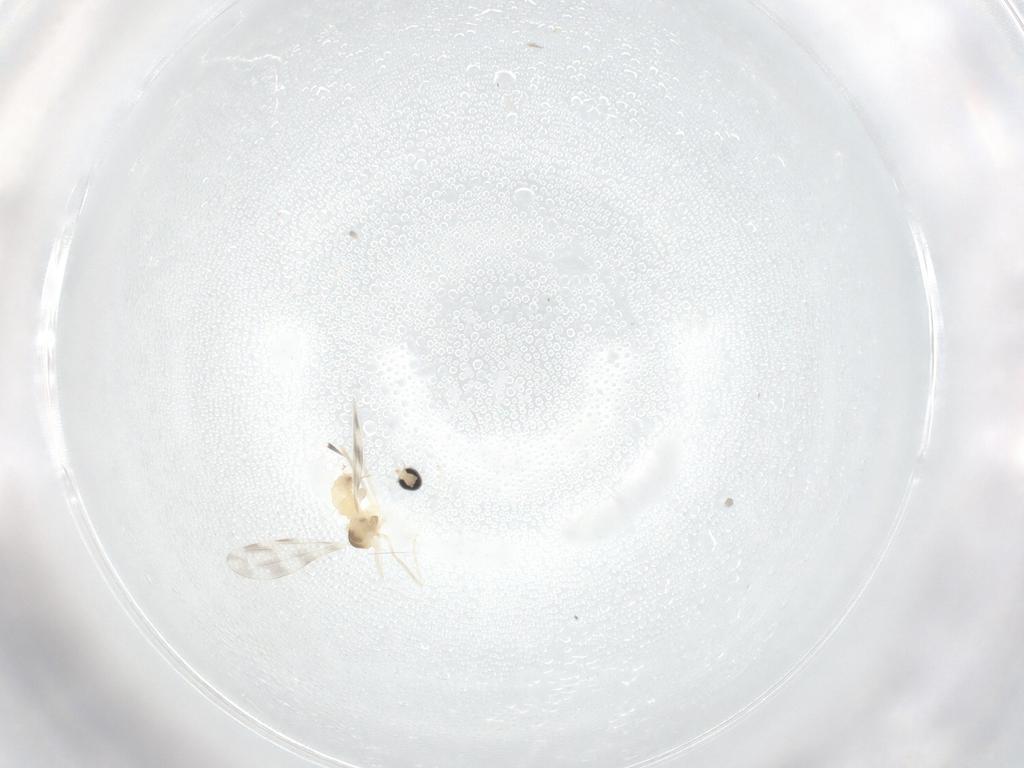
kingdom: Animalia
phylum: Arthropoda
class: Insecta
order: Diptera
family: Cecidomyiidae
